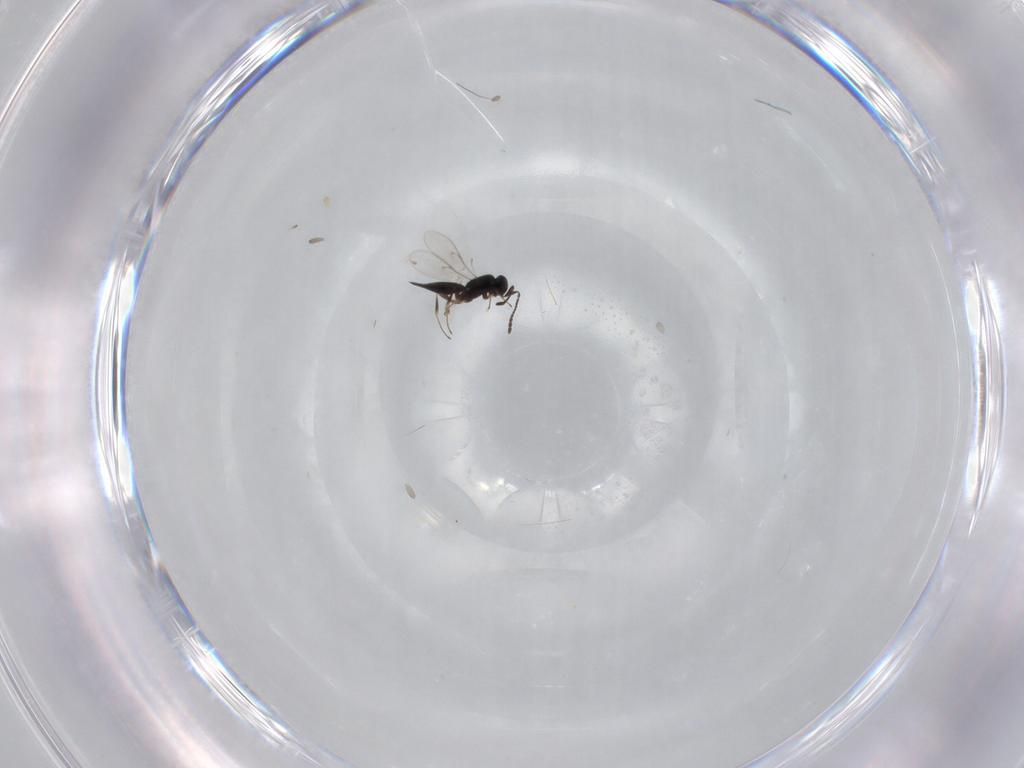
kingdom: Animalia
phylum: Arthropoda
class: Insecta
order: Hymenoptera
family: Scelionidae
